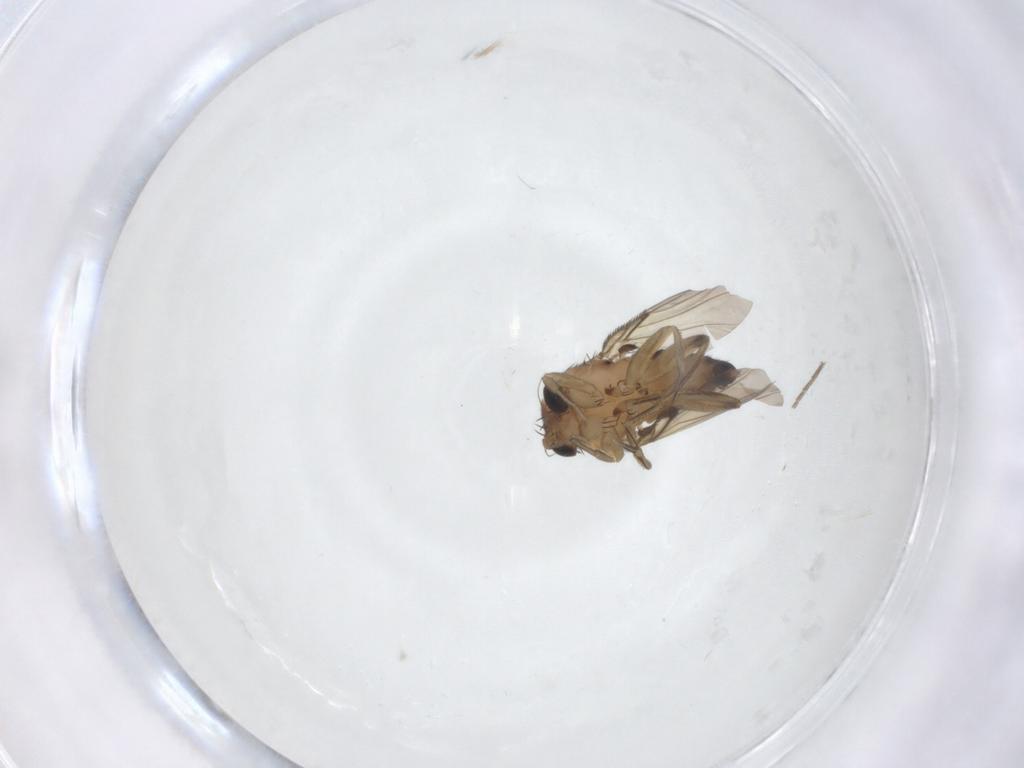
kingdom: Animalia
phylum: Arthropoda
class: Insecta
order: Diptera
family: Phoridae
